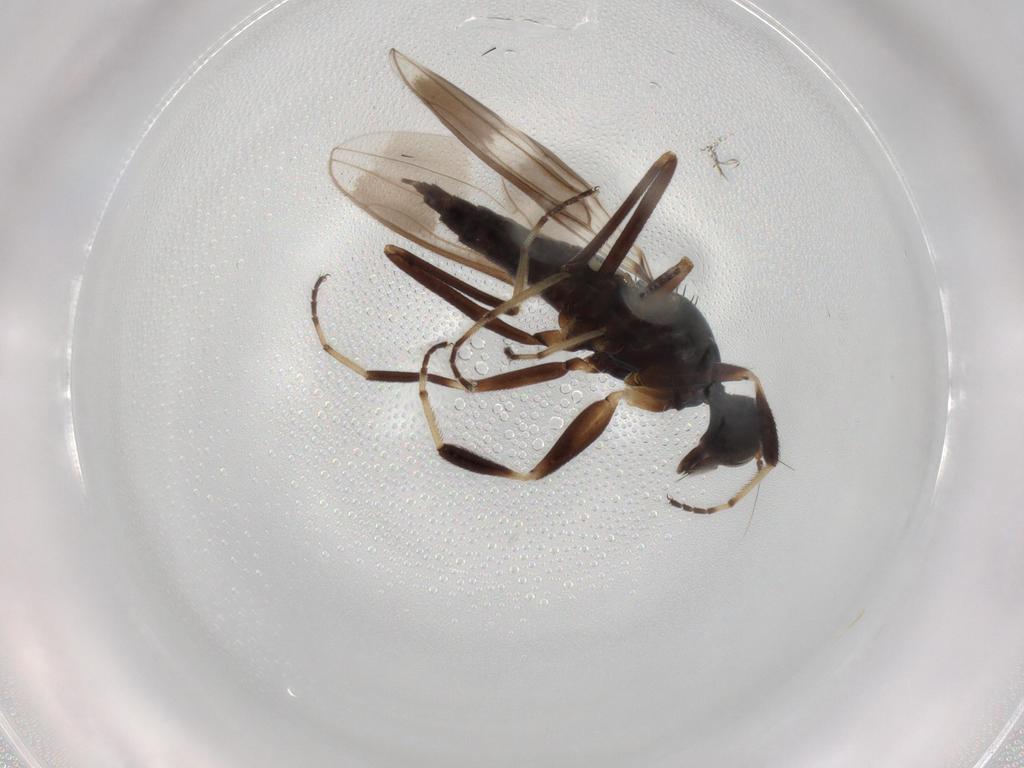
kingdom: Animalia
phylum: Arthropoda
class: Insecta
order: Diptera
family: Hybotidae
